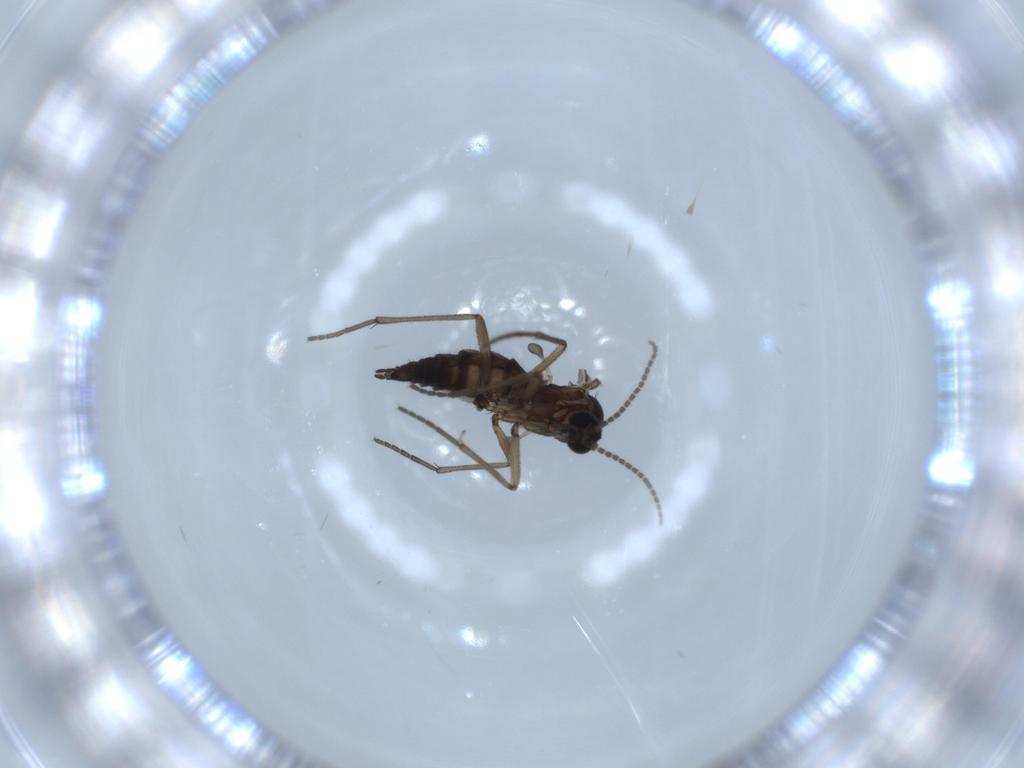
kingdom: Animalia
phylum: Arthropoda
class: Insecta
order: Diptera
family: Sciaridae
